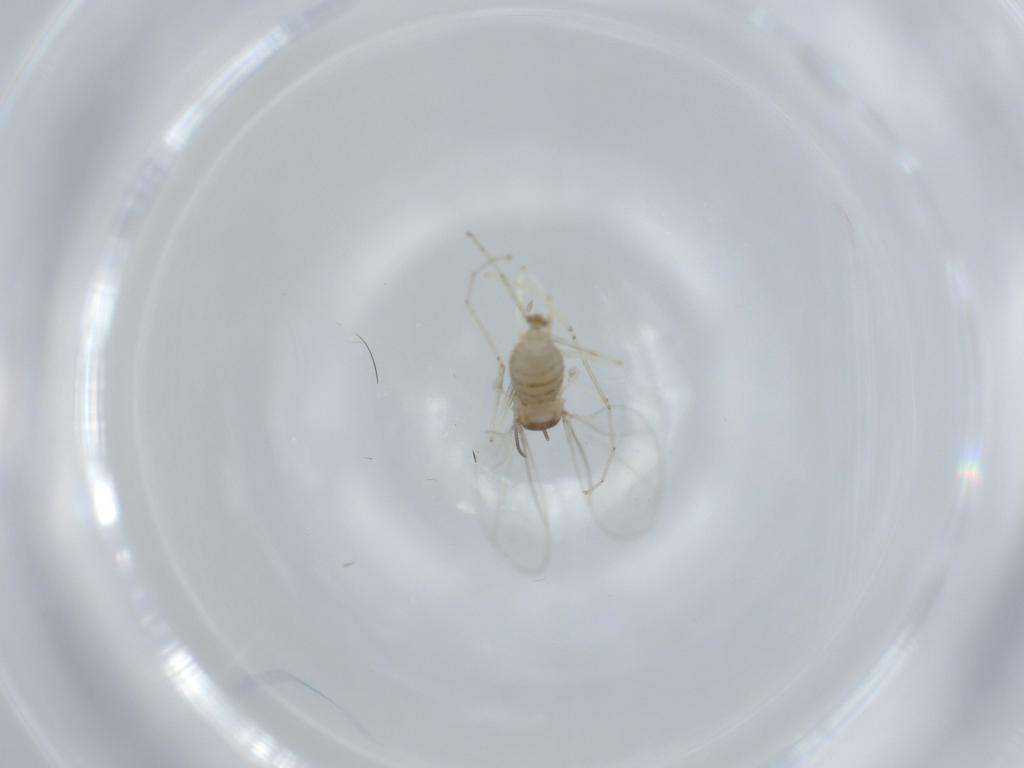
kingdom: Animalia
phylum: Arthropoda
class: Insecta
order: Diptera
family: Cecidomyiidae
